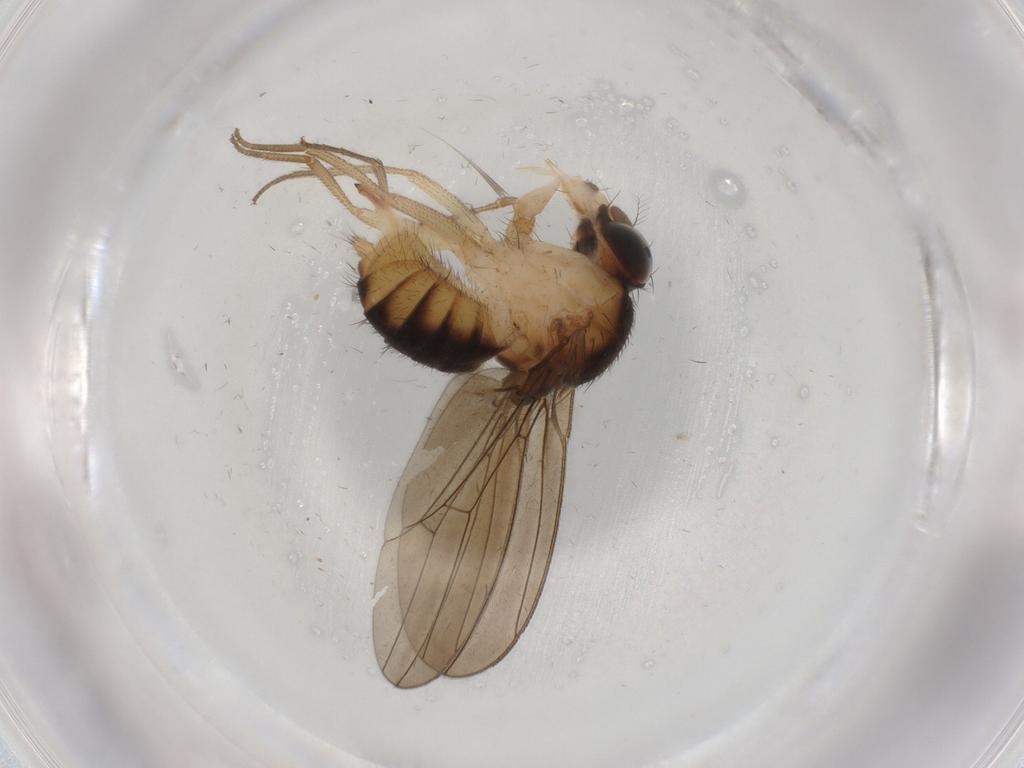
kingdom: Animalia
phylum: Arthropoda
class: Insecta
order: Diptera
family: Drosophilidae
